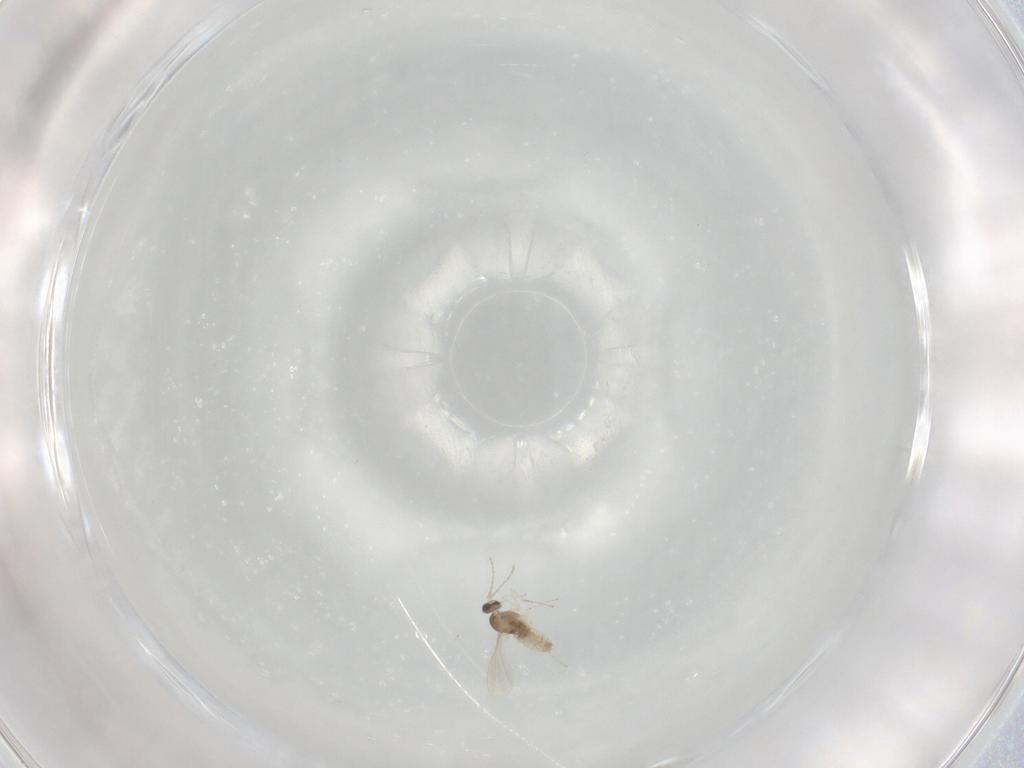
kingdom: Animalia
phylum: Arthropoda
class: Insecta
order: Diptera
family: Cecidomyiidae
